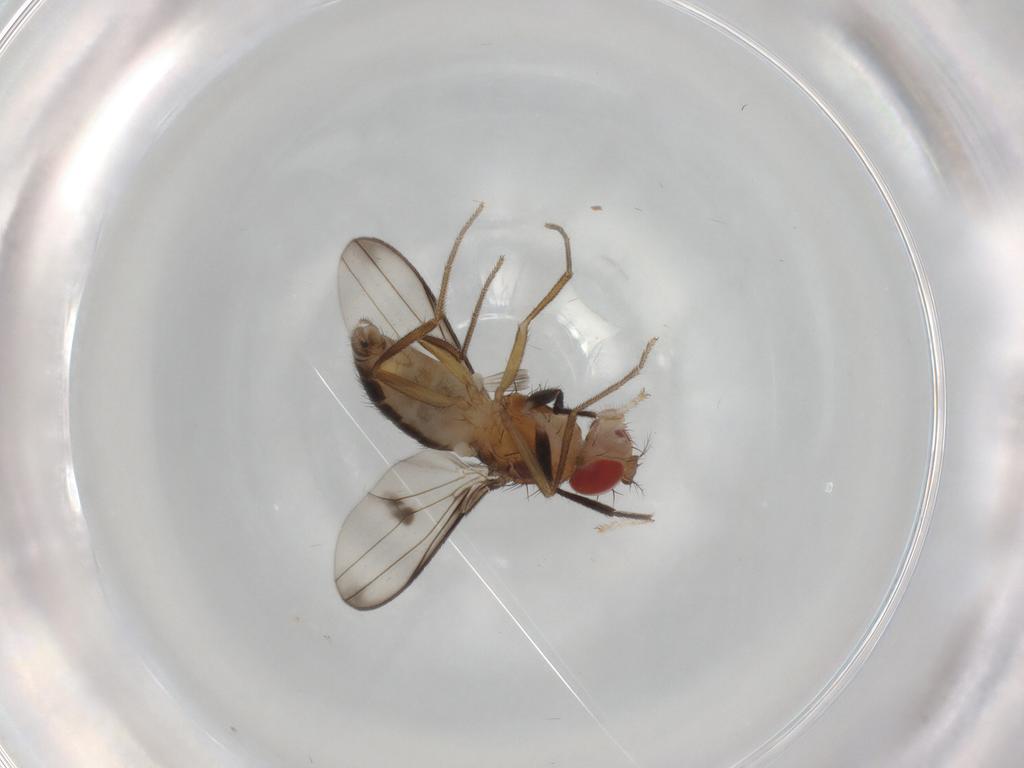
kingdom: Animalia
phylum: Arthropoda
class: Insecta
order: Diptera
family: Drosophilidae
